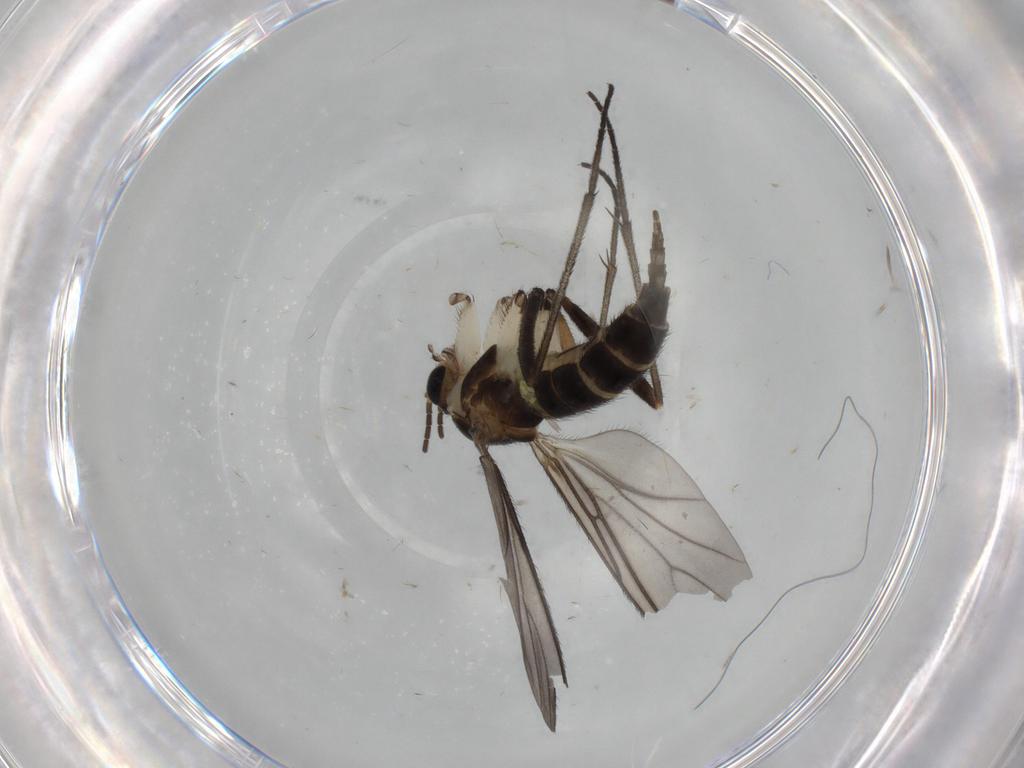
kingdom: Animalia
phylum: Arthropoda
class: Insecta
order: Diptera
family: Sciaridae
